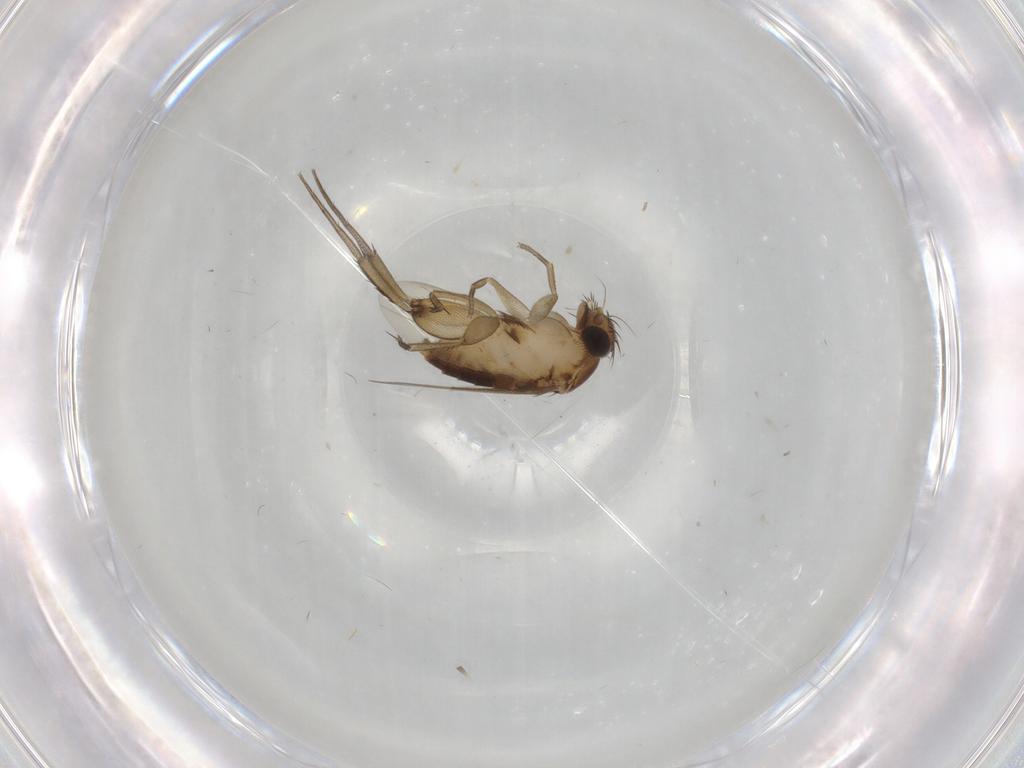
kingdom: Animalia
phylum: Arthropoda
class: Insecta
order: Diptera
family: Phoridae
